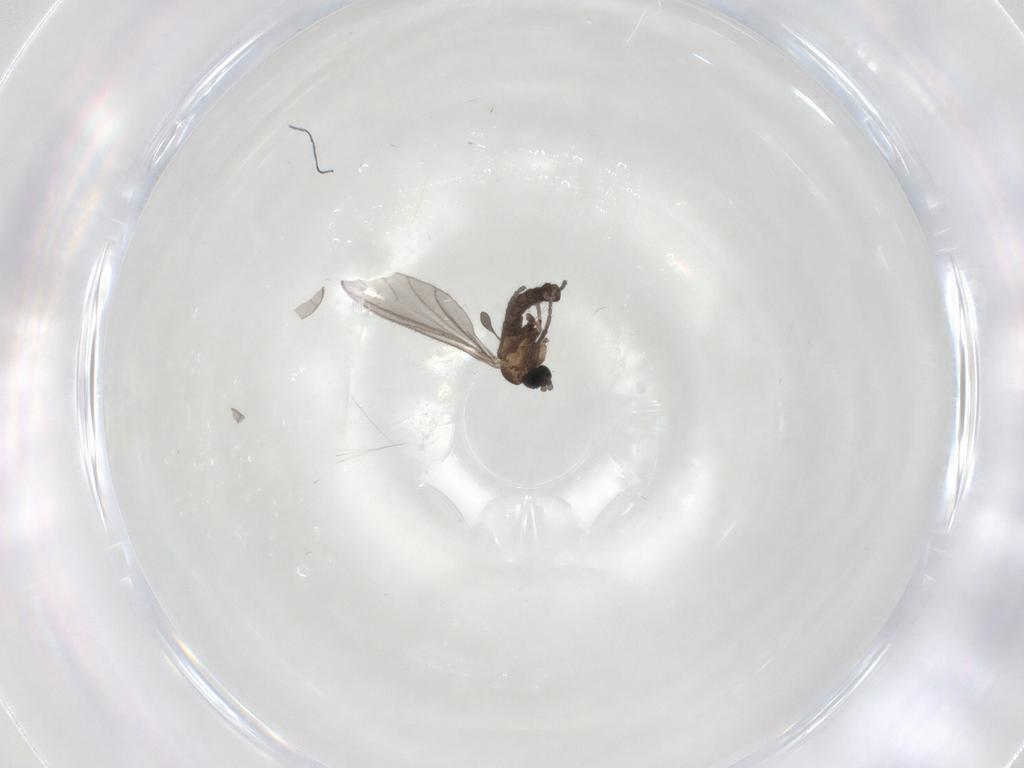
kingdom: Animalia
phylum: Arthropoda
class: Insecta
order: Diptera
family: Sciaridae
